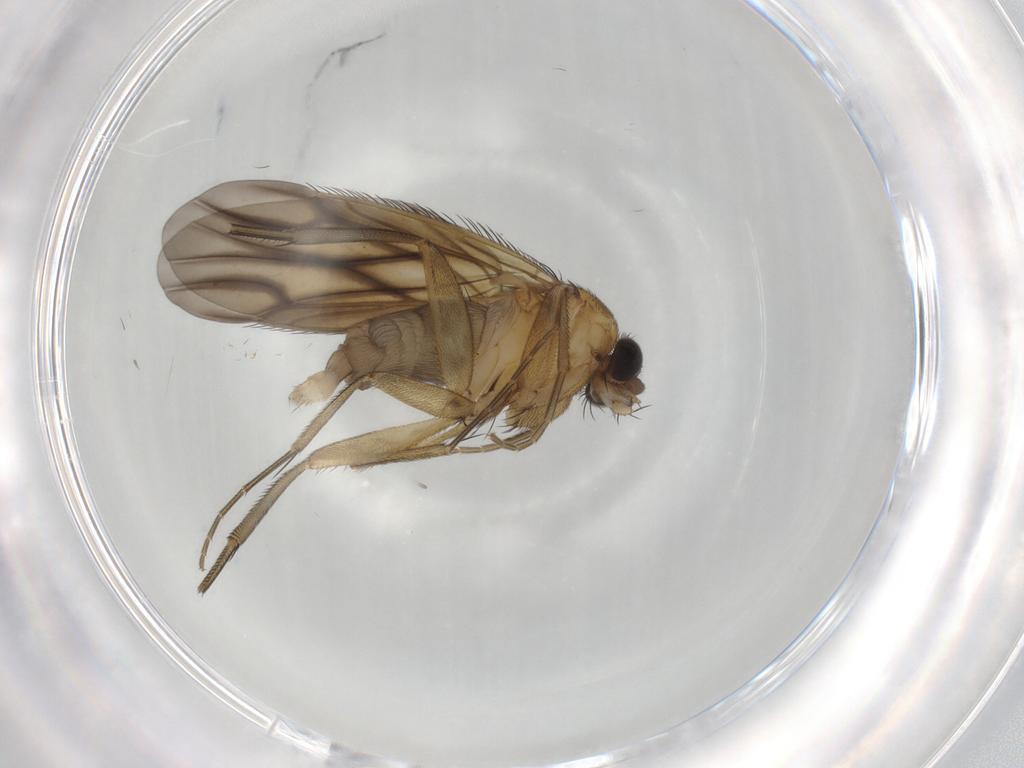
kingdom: Animalia
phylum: Arthropoda
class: Insecta
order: Diptera
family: Phoridae
